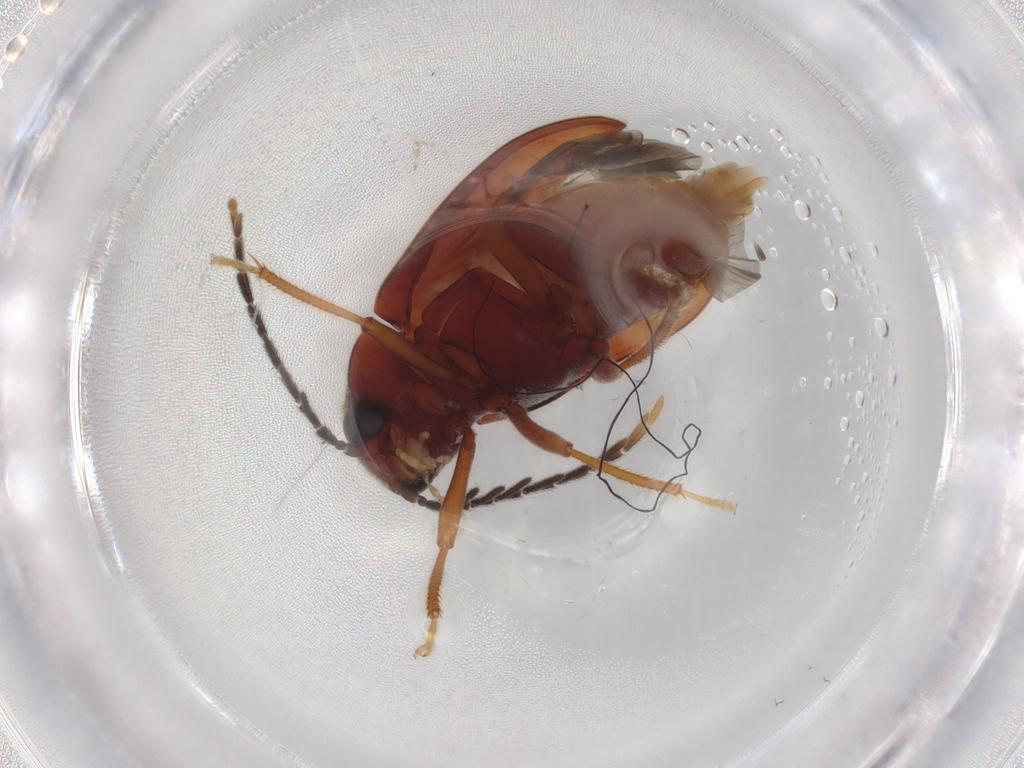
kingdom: Animalia
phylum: Arthropoda
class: Insecta
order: Coleoptera
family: Ptilodactylidae
